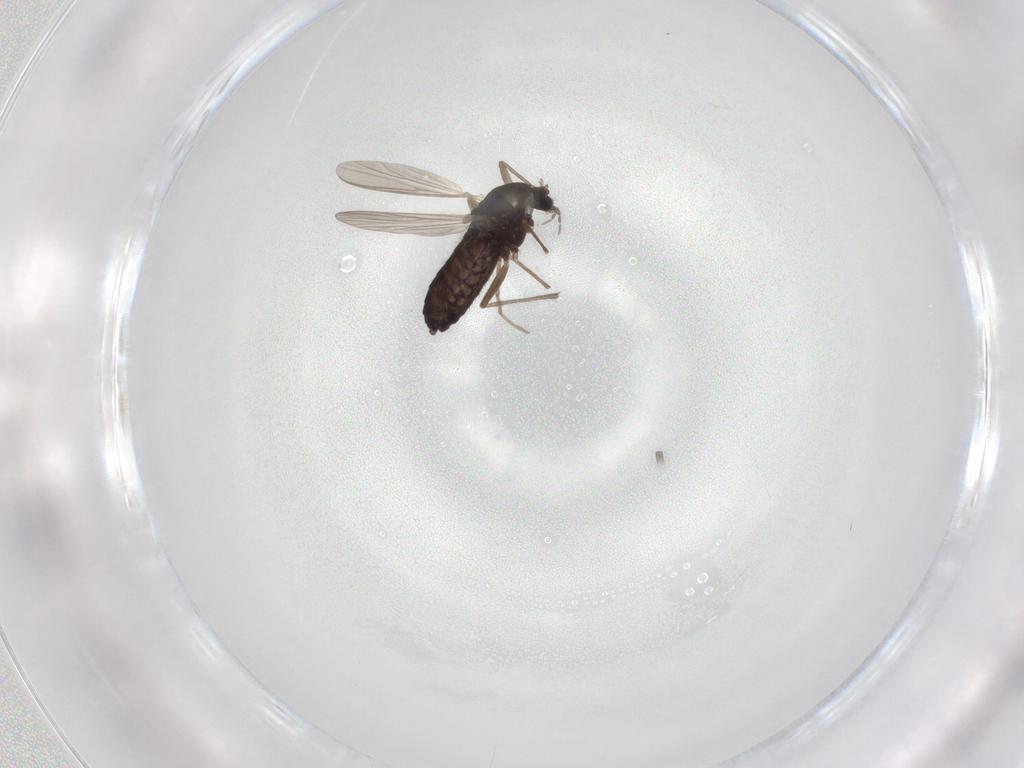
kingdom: Animalia
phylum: Arthropoda
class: Insecta
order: Diptera
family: Chironomidae
